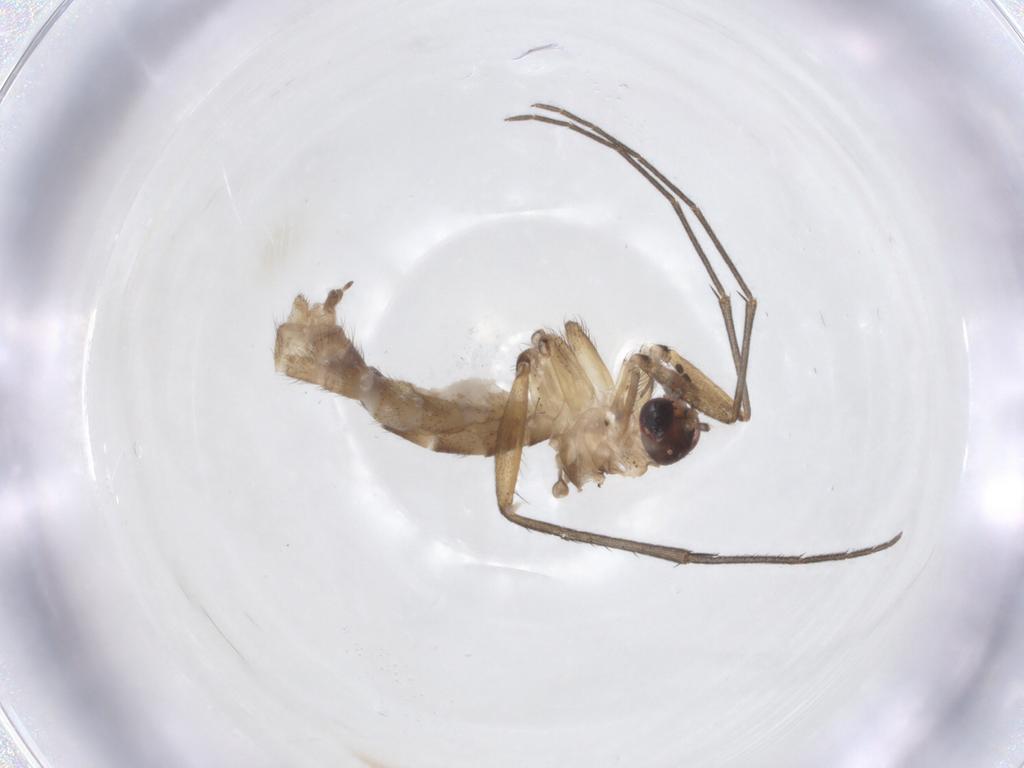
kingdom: Animalia
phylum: Arthropoda
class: Insecta
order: Diptera
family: Mycetophilidae
